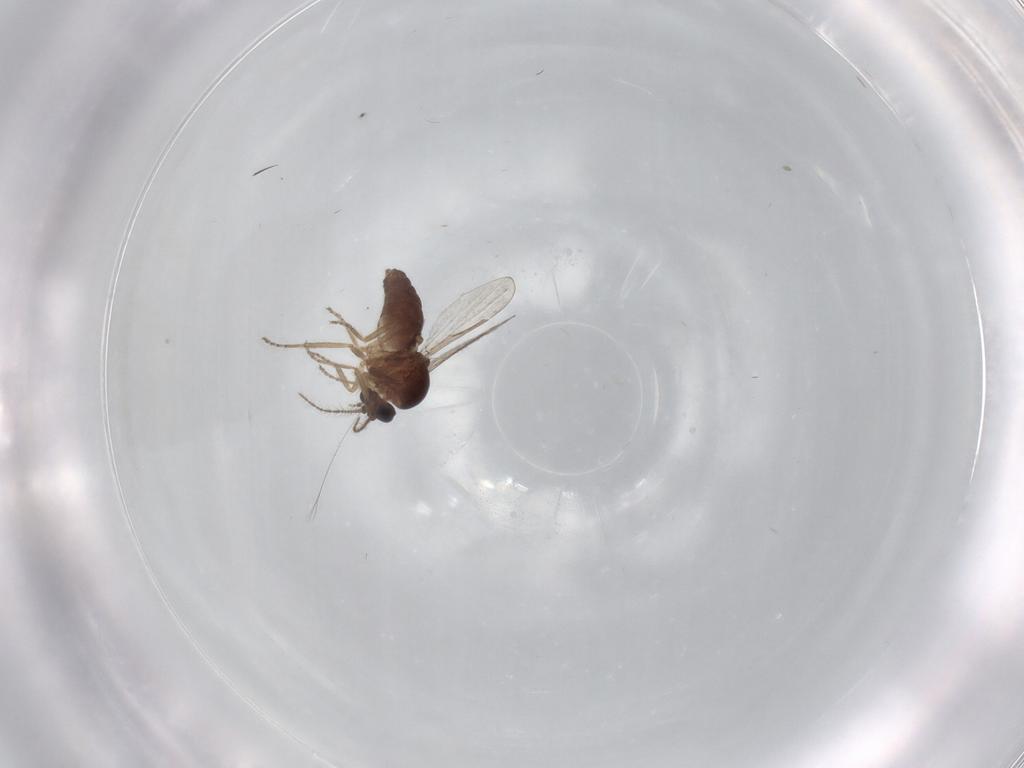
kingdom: Animalia
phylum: Arthropoda
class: Insecta
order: Diptera
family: Ceratopogonidae
